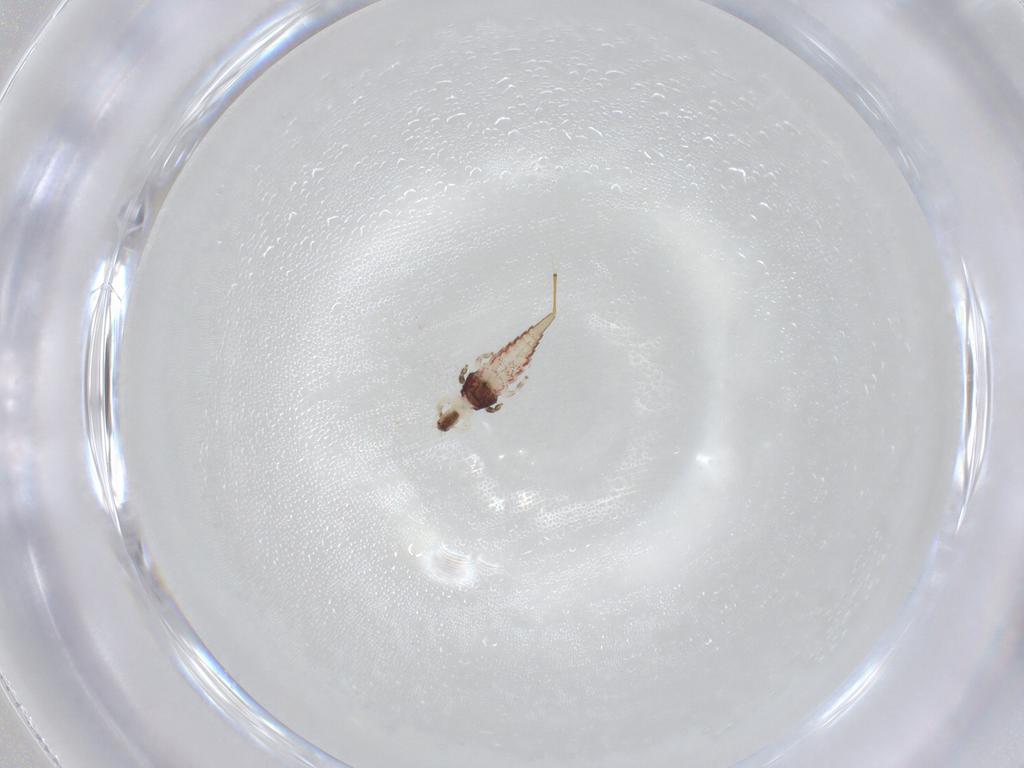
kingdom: Animalia
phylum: Arthropoda
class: Insecta
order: Thysanoptera
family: Phlaeothripidae
